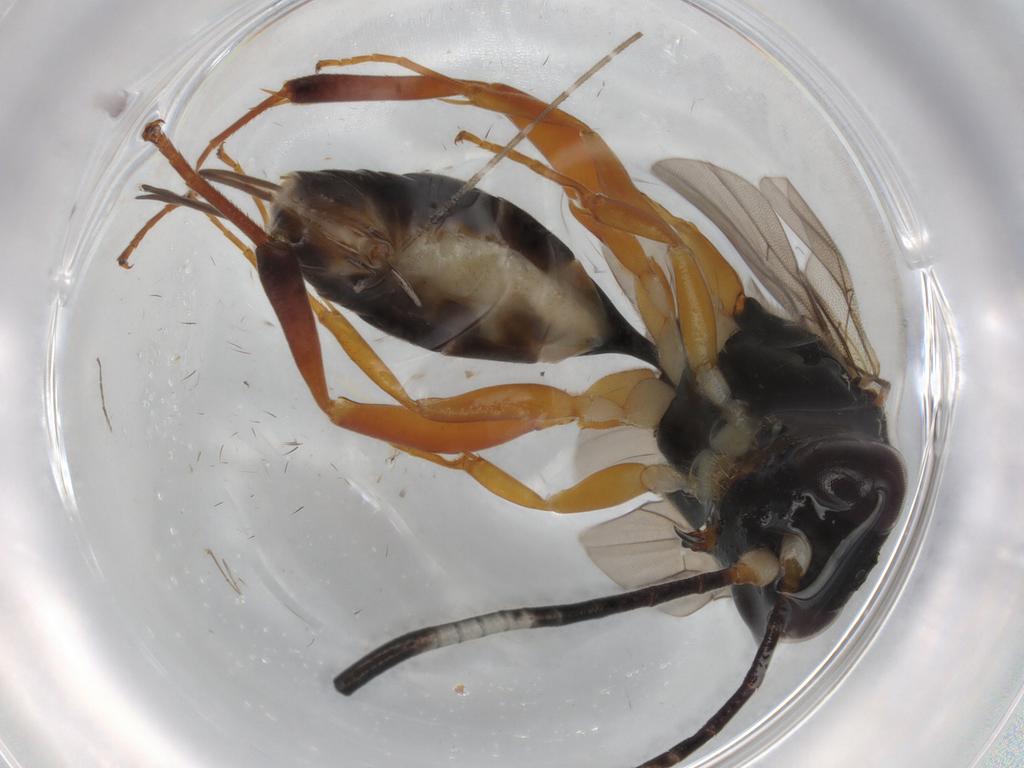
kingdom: Animalia
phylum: Arthropoda
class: Insecta
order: Hymenoptera
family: Ichneumonidae
